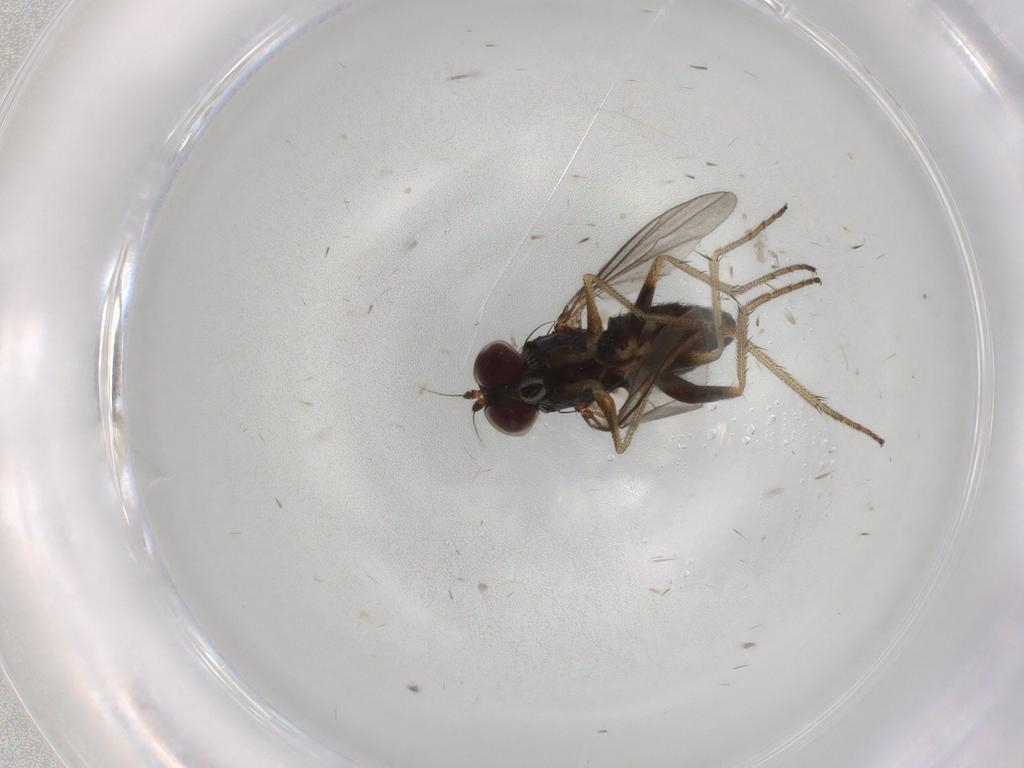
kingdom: Animalia
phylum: Arthropoda
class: Insecta
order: Diptera
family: Dolichopodidae
